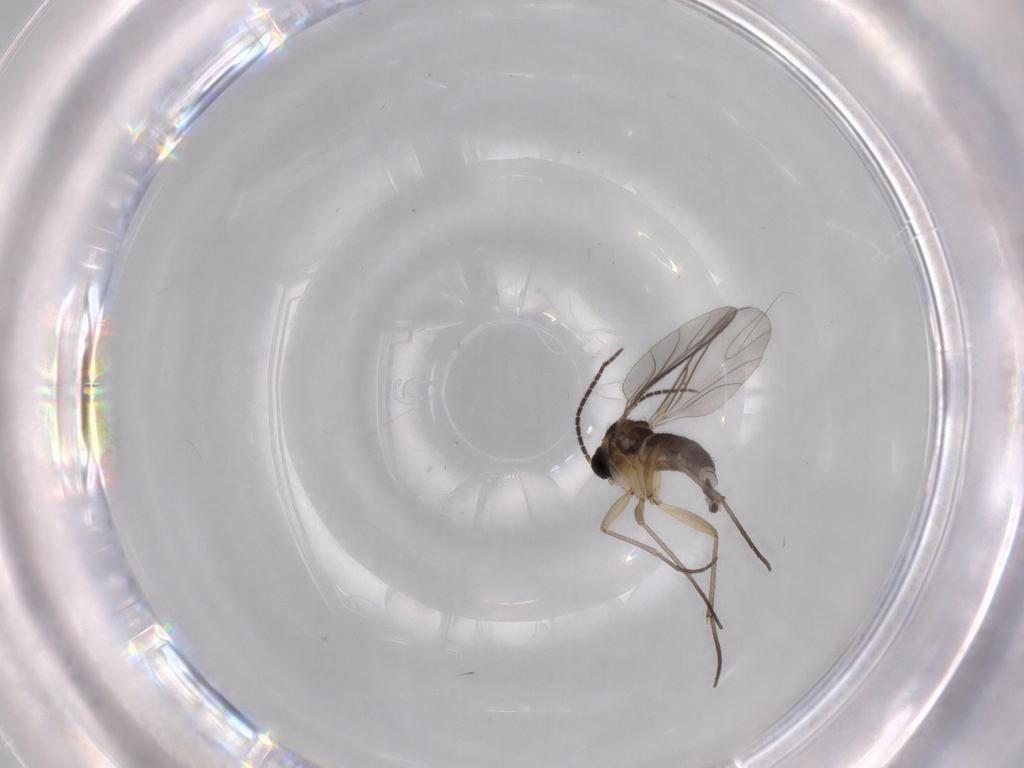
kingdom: Animalia
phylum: Arthropoda
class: Insecta
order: Diptera
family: Sciaridae
